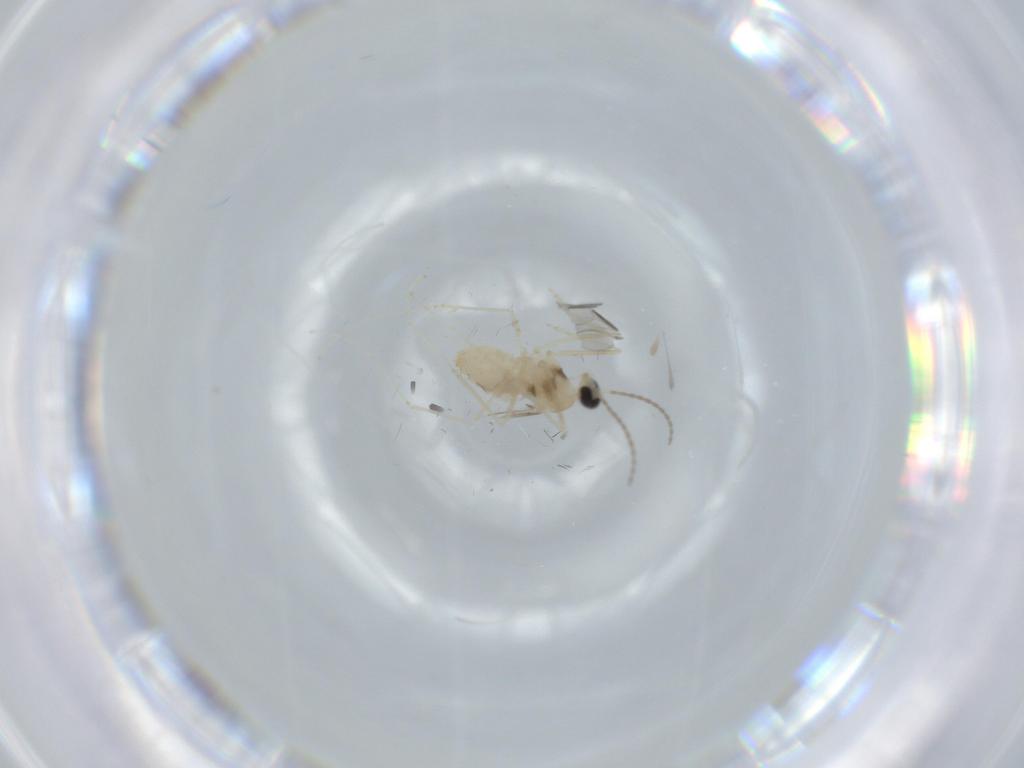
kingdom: Animalia
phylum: Arthropoda
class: Insecta
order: Diptera
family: Cecidomyiidae
